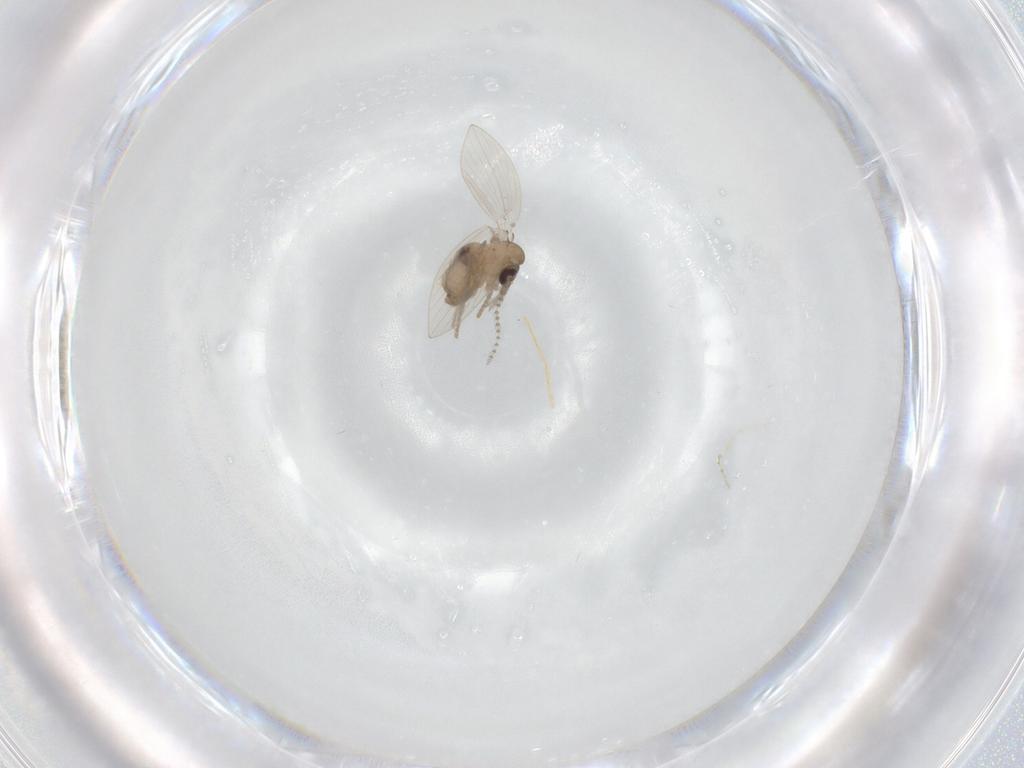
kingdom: Animalia
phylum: Arthropoda
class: Insecta
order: Diptera
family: Psychodidae
